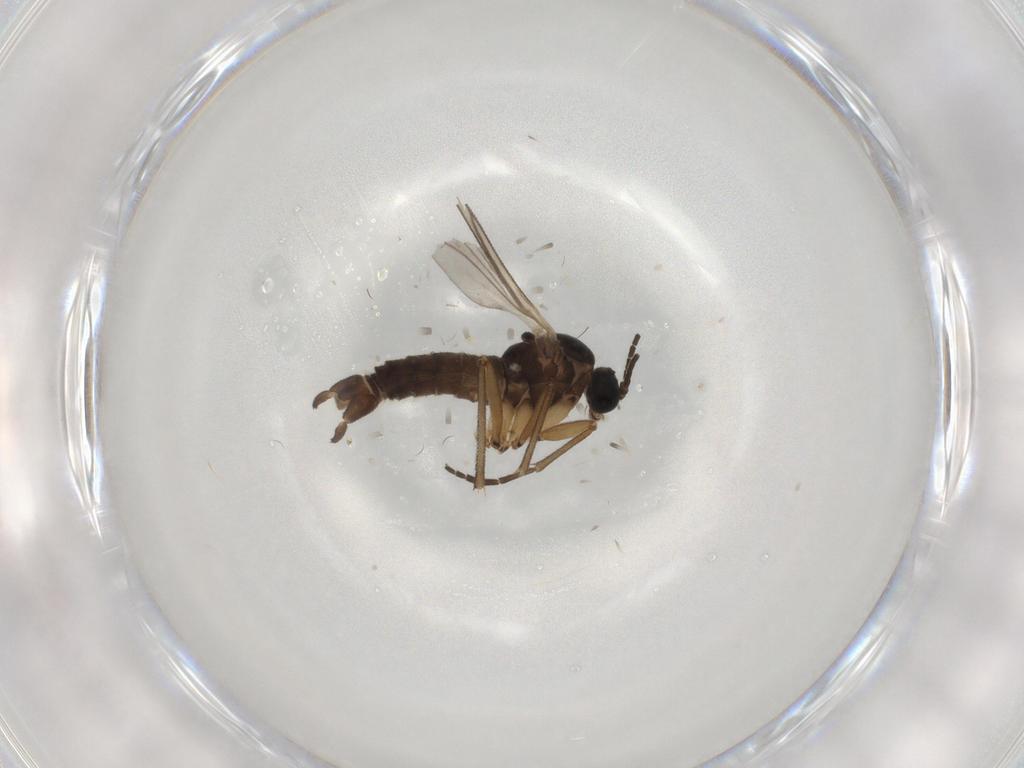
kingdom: Animalia
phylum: Arthropoda
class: Insecta
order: Diptera
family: Sciaridae
